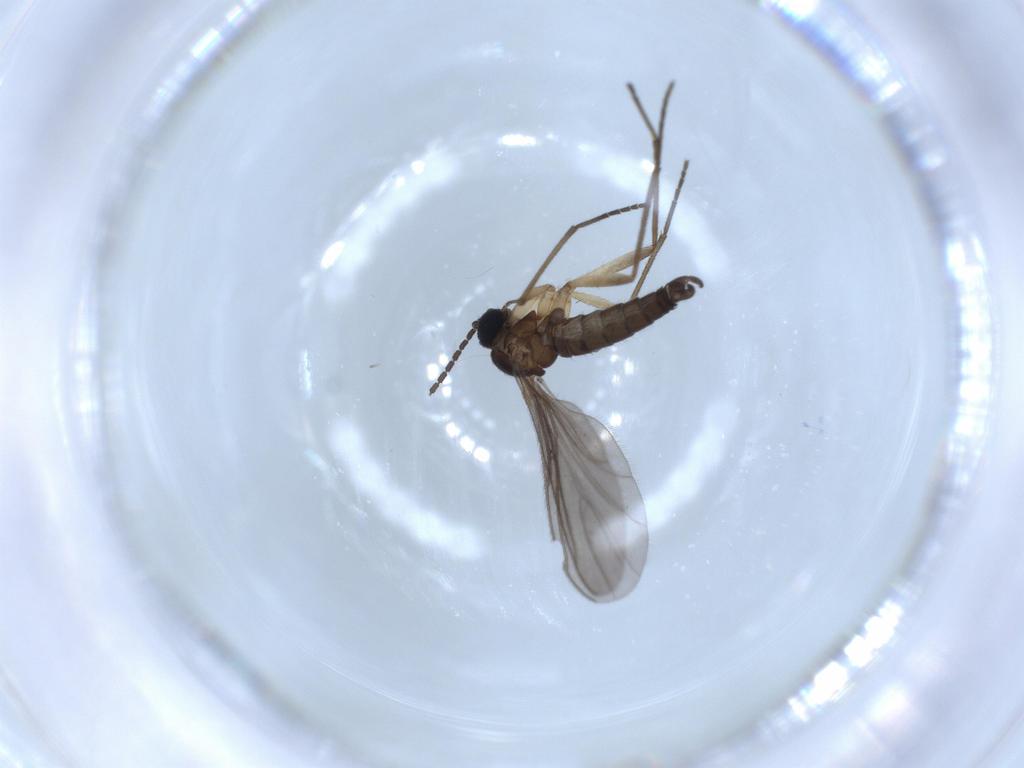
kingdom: Animalia
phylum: Arthropoda
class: Insecta
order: Diptera
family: Sciaridae
